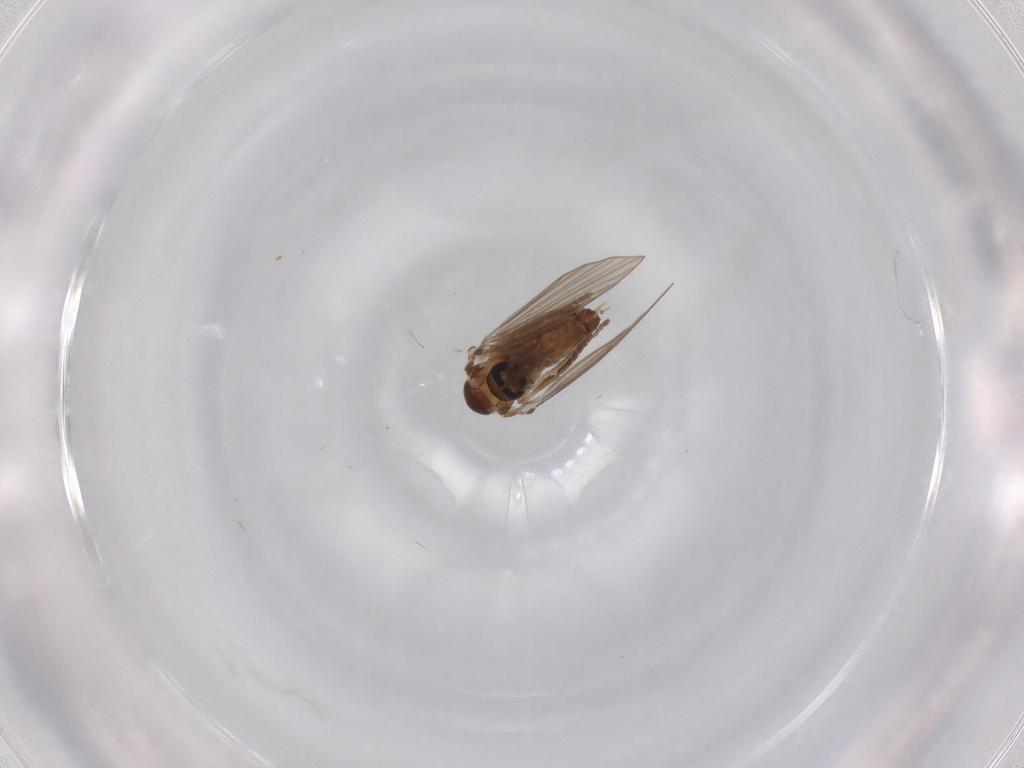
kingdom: Animalia
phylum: Arthropoda
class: Insecta
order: Diptera
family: Psychodidae
